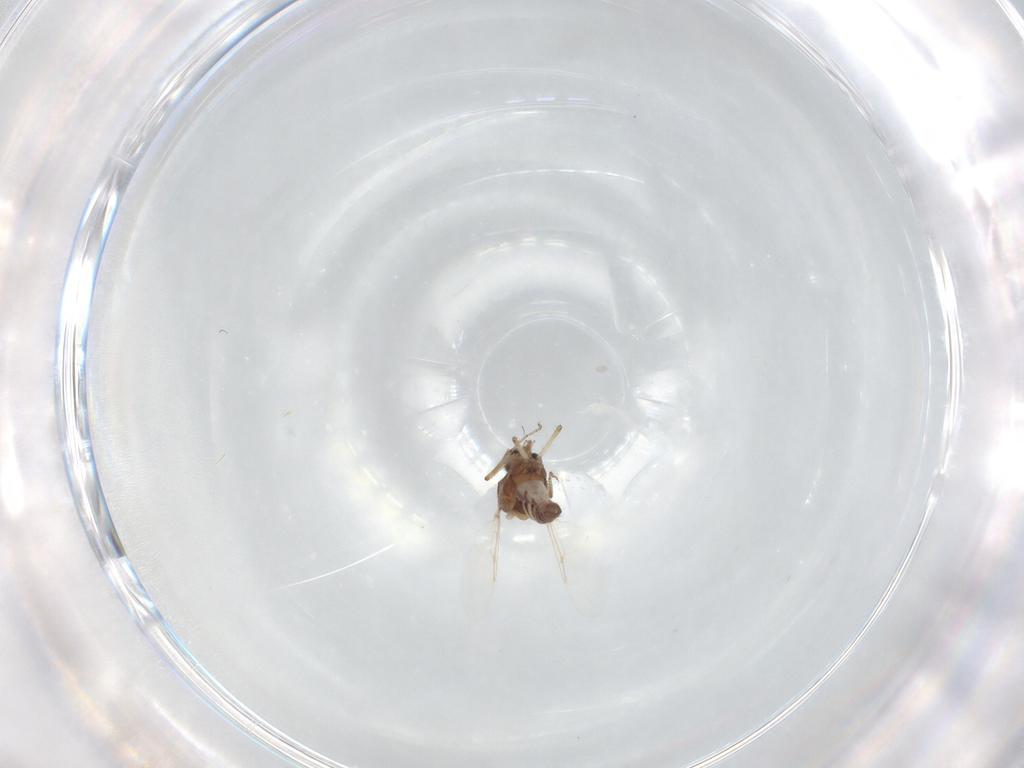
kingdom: Animalia
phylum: Arthropoda
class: Insecta
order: Diptera
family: Ceratopogonidae
